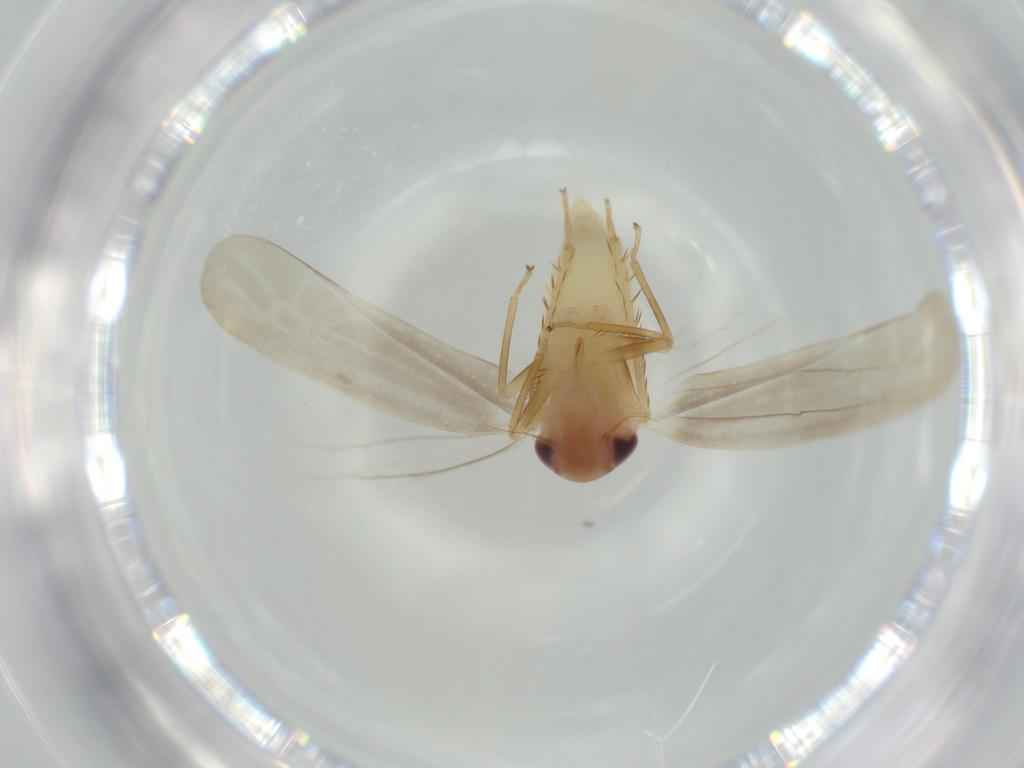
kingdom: Animalia
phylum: Arthropoda
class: Insecta
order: Hemiptera
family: Cicadellidae
